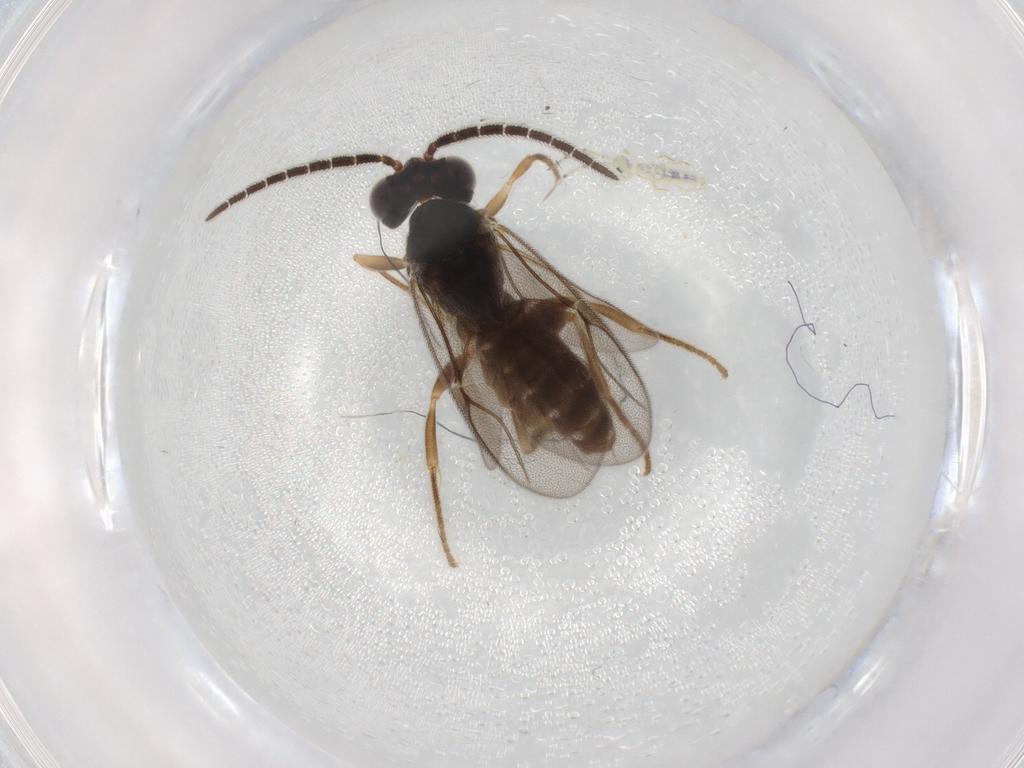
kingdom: Animalia
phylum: Arthropoda
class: Insecta
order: Hymenoptera
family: Dryinidae
